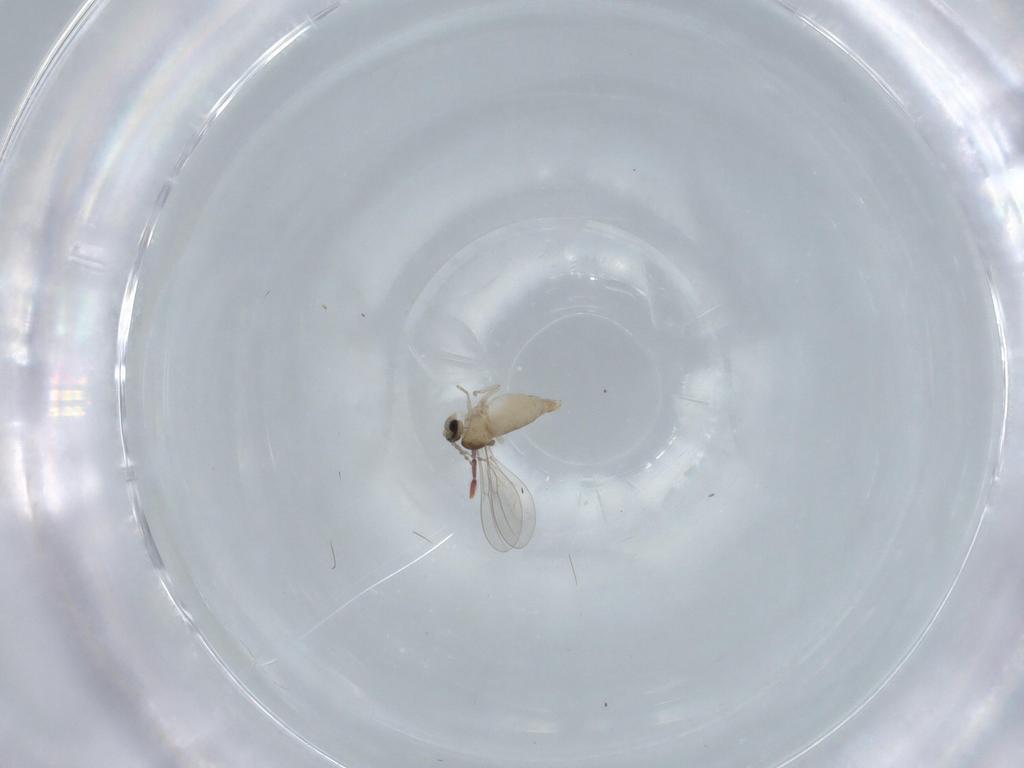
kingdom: Animalia
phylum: Arthropoda
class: Insecta
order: Diptera
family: Cecidomyiidae
